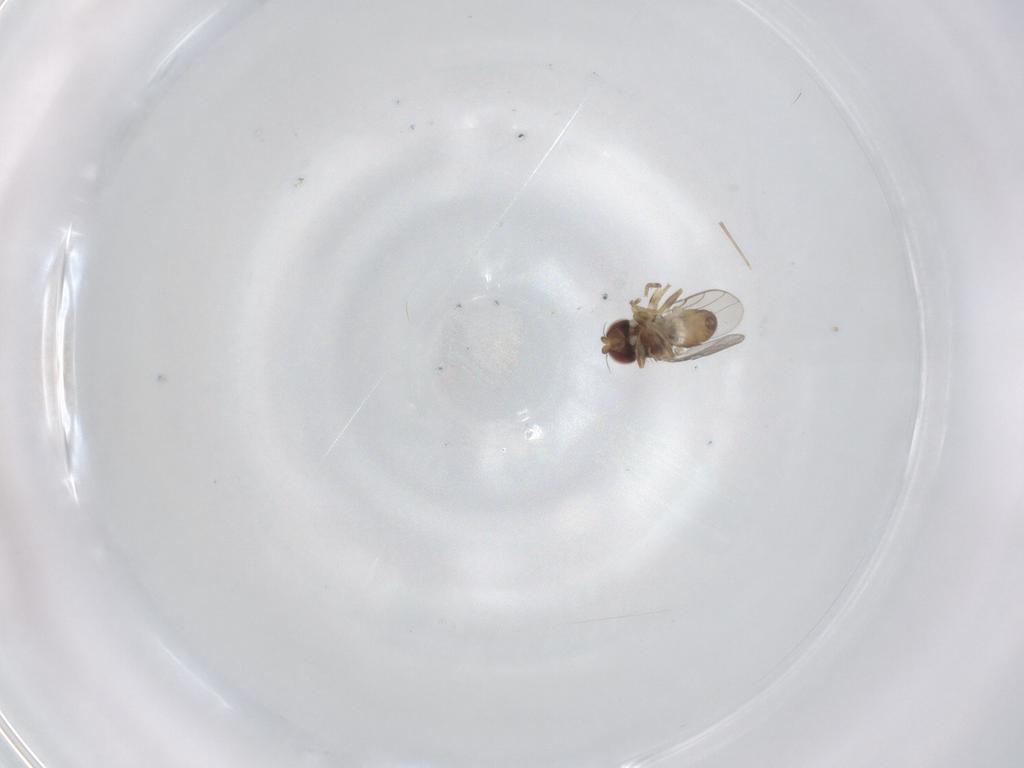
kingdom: Animalia
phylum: Arthropoda
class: Insecta
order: Diptera
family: Chloropidae
